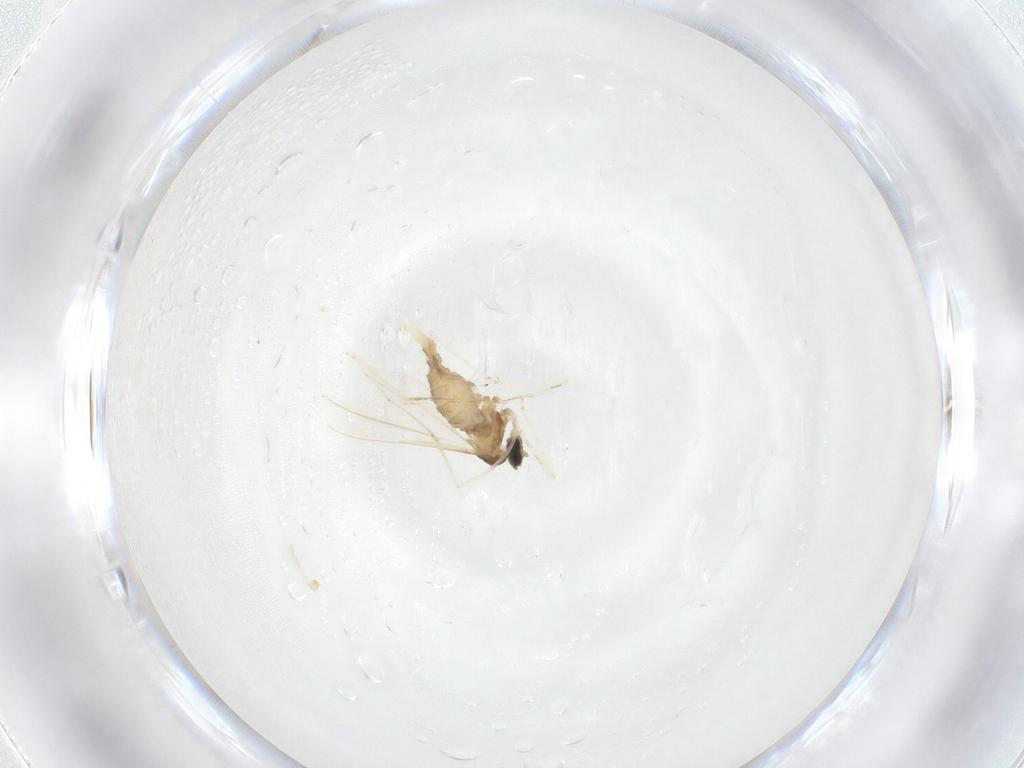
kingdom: Animalia
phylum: Arthropoda
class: Insecta
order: Diptera
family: Cecidomyiidae
